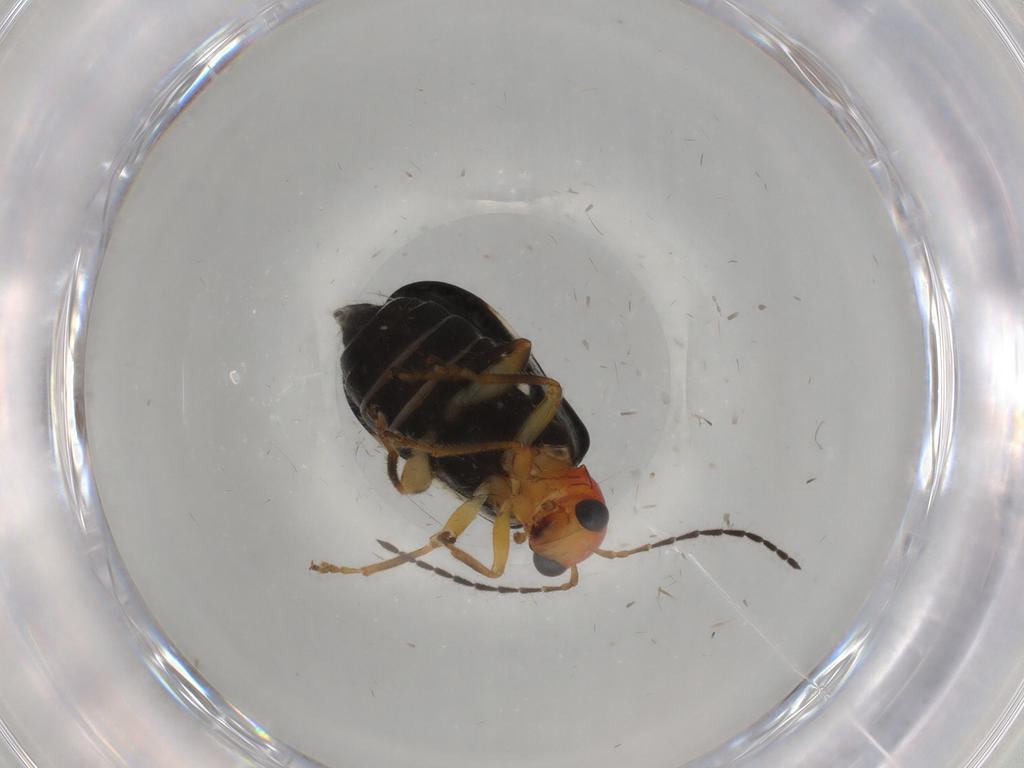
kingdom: Animalia
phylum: Arthropoda
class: Insecta
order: Coleoptera
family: Chrysomelidae
